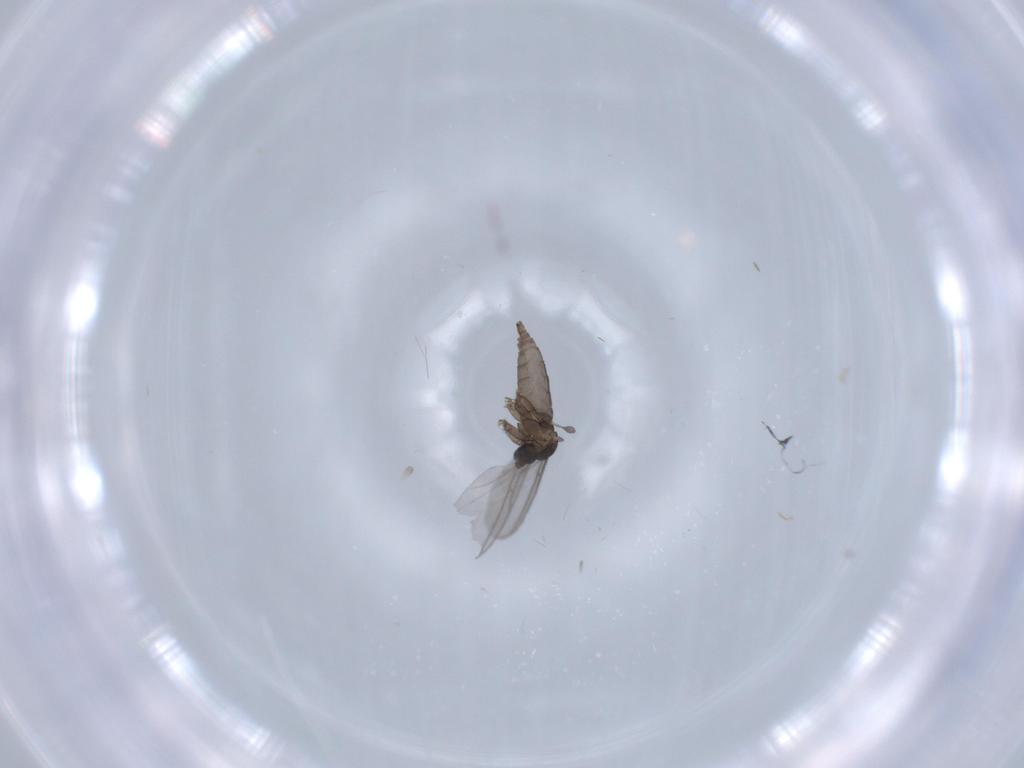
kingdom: Animalia
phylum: Arthropoda
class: Insecta
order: Diptera
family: Sciaridae
